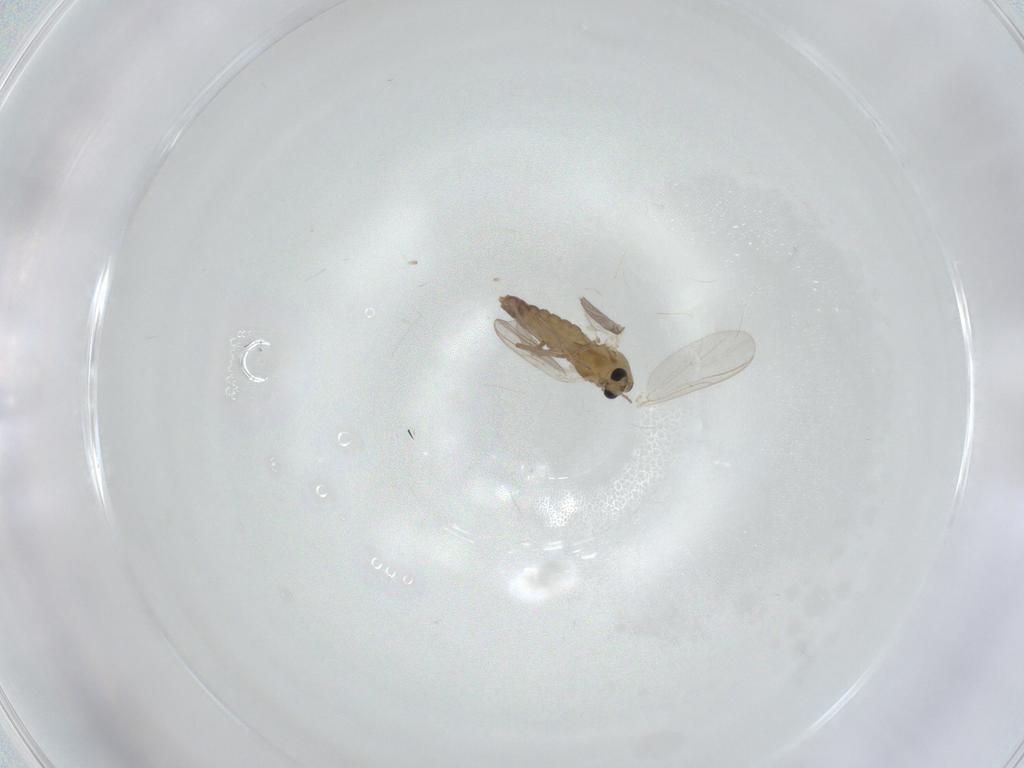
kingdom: Animalia
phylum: Arthropoda
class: Insecta
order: Diptera
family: Chironomidae
